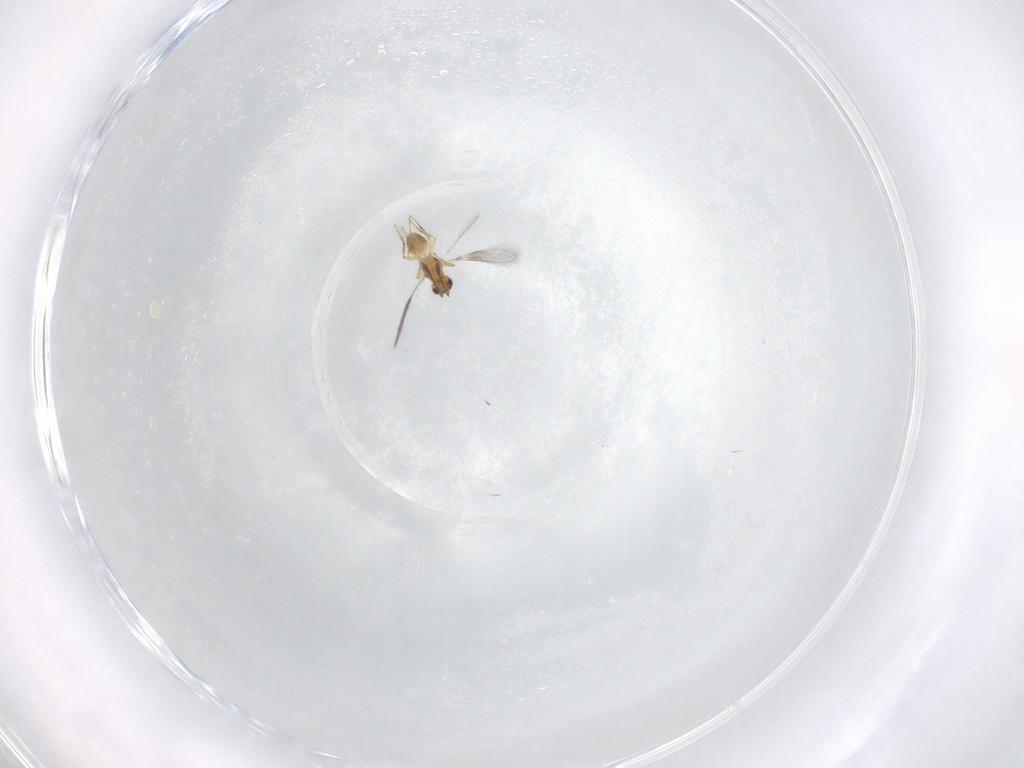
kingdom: Animalia
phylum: Arthropoda
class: Insecta
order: Hymenoptera
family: Mymaridae
